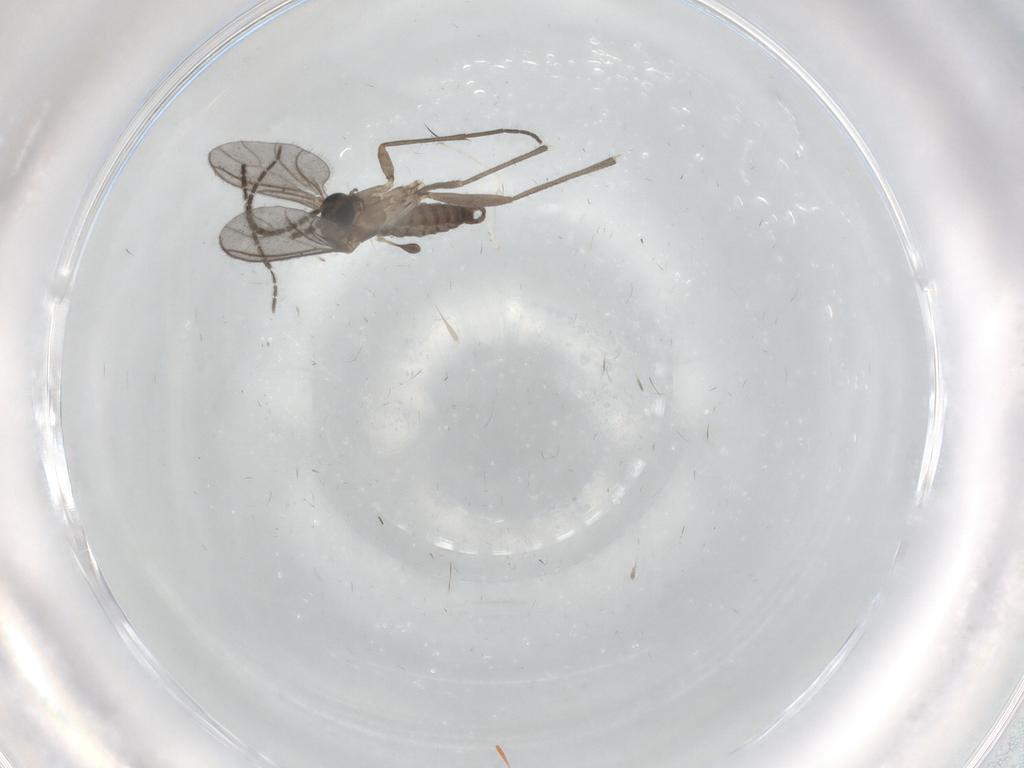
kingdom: Animalia
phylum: Arthropoda
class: Insecta
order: Diptera
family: Sciaridae
